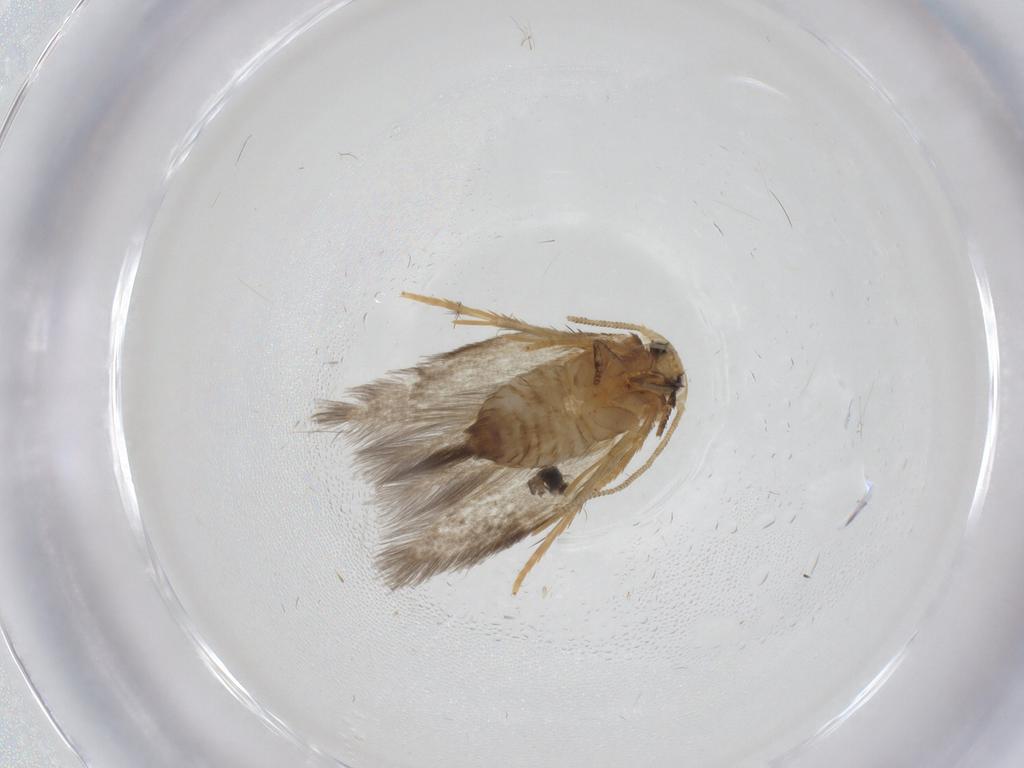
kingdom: Animalia
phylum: Arthropoda
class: Insecta
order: Lepidoptera
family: Nepticulidae
